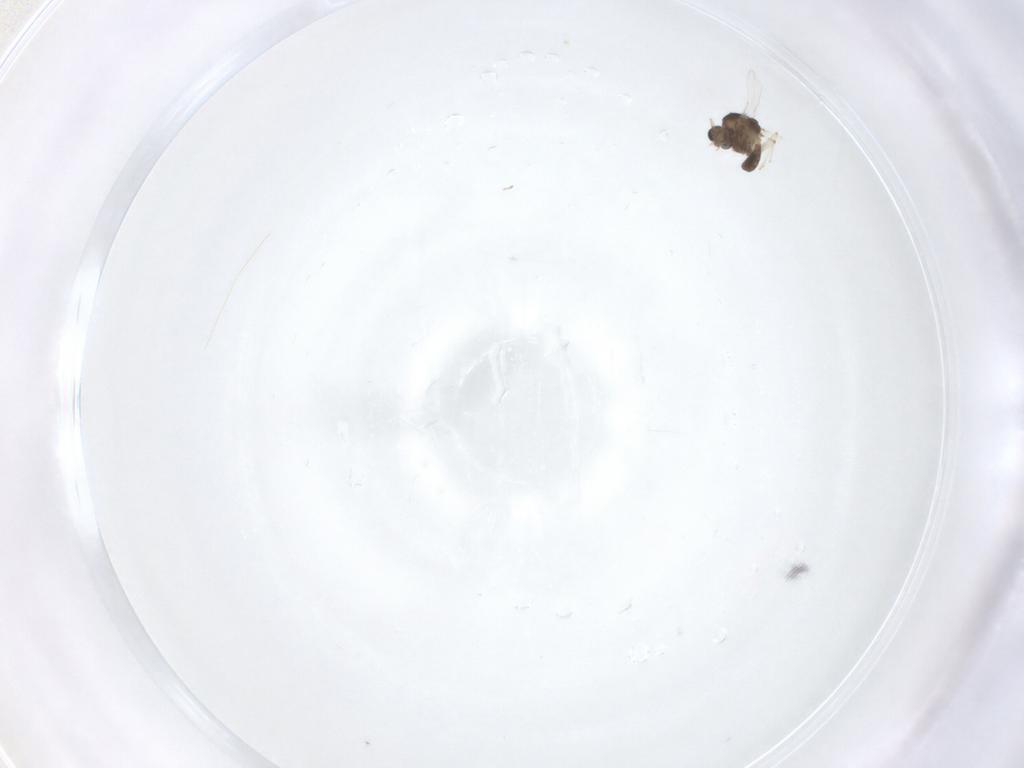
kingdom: Animalia
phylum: Arthropoda
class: Insecta
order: Diptera
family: Chironomidae
